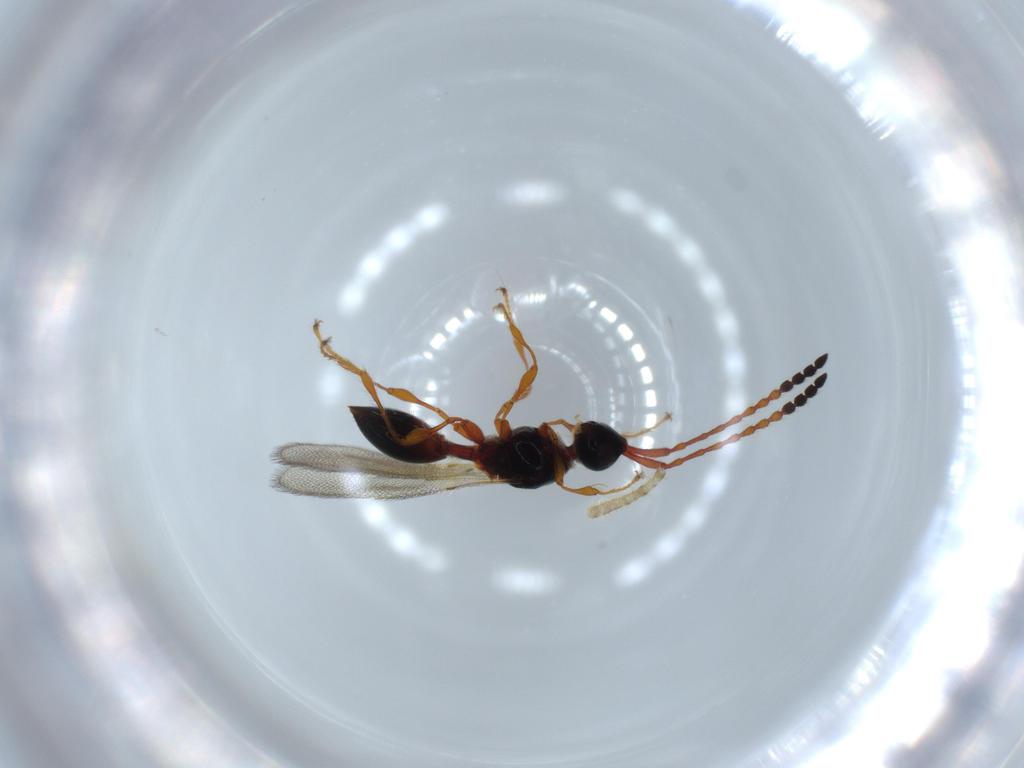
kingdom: Animalia
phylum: Arthropoda
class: Insecta
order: Hymenoptera
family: Diapriidae
